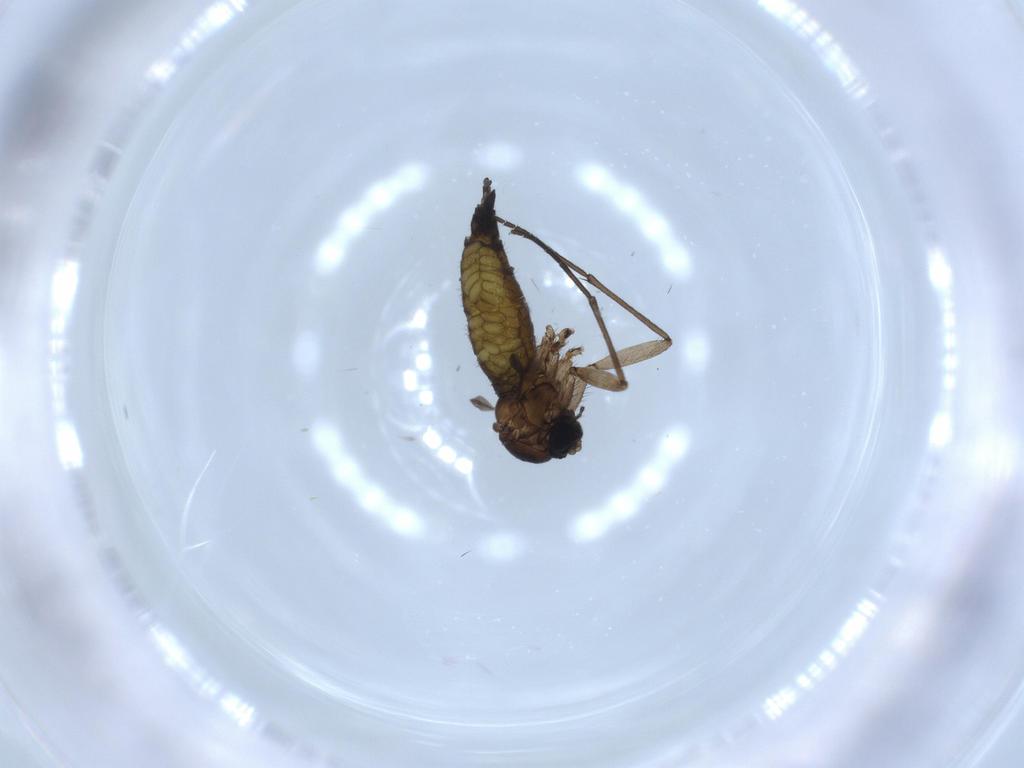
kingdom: Animalia
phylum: Arthropoda
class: Insecta
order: Diptera
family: Sciaridae
